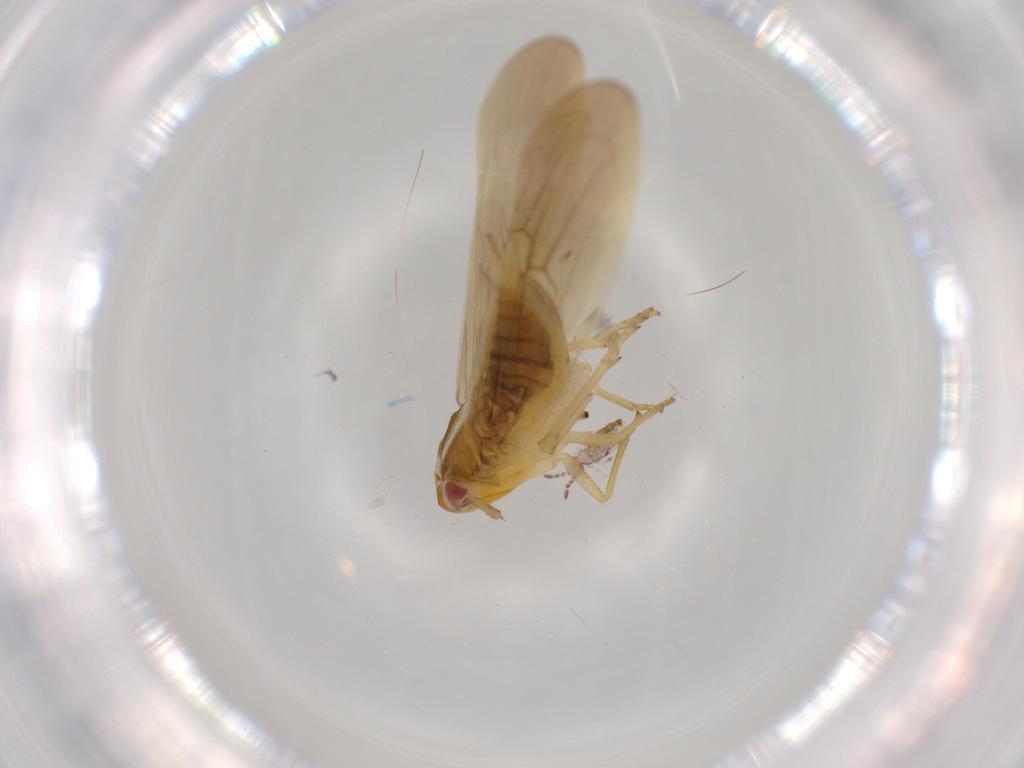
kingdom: Animalia
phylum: Arthropoda
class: Insecta
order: Hemiptera
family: Delphacidae
